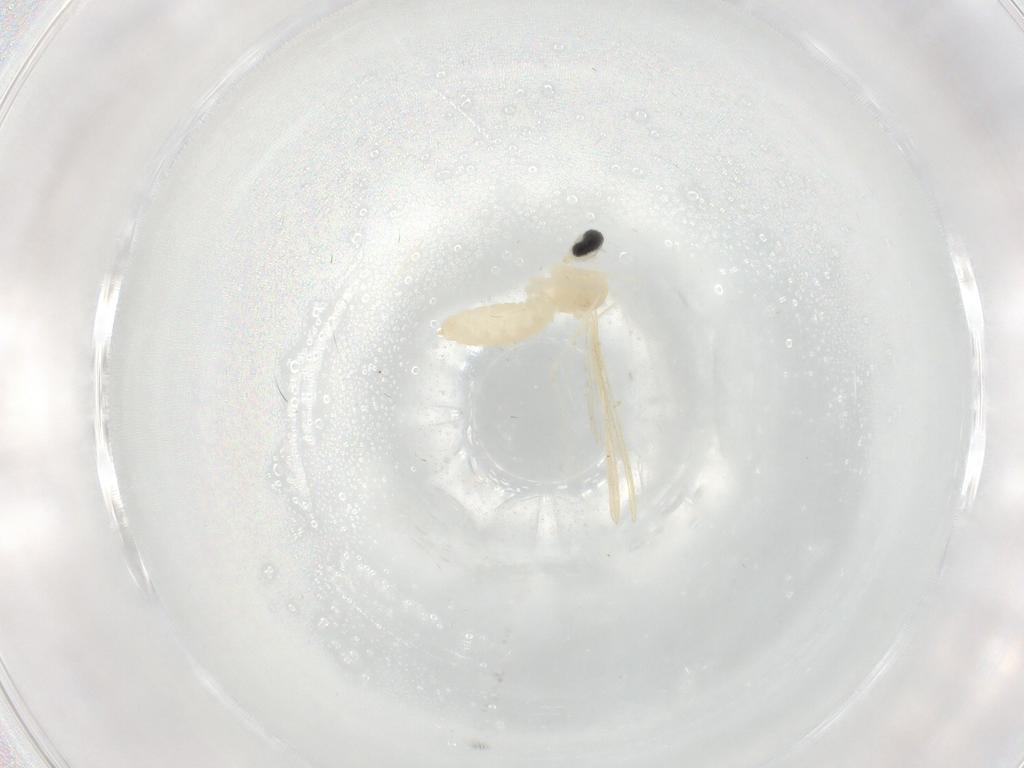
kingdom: Animalia
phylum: Arthropoda
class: Insecta
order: Diptera
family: Cecidomyiidae
